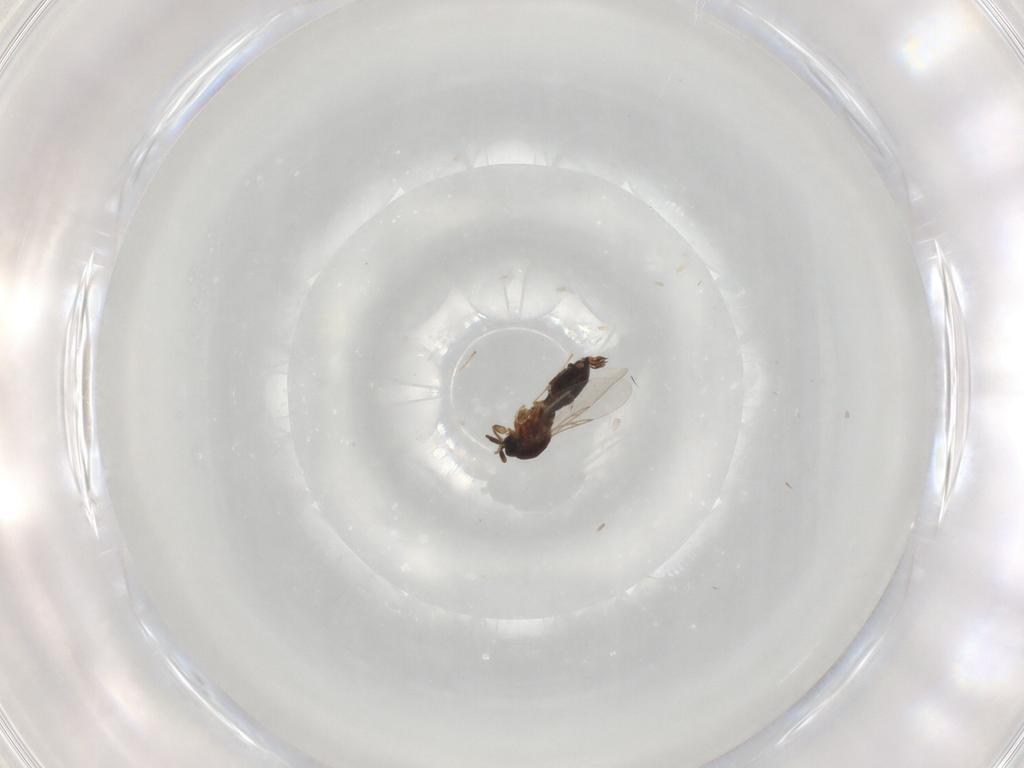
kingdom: Animalia
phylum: Arthropoda
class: Insecta
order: Diptera
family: Scatopsidae
